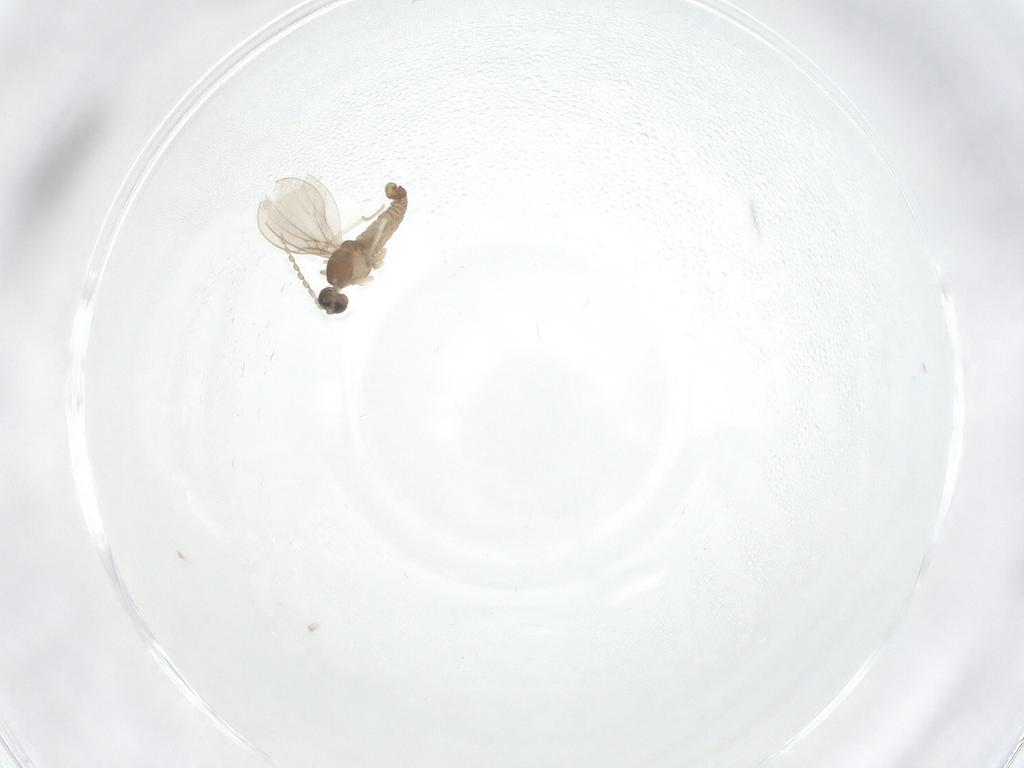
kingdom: Animalia
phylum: Arthropoda
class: Insecta
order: Diptera
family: Cecidomyiidae
